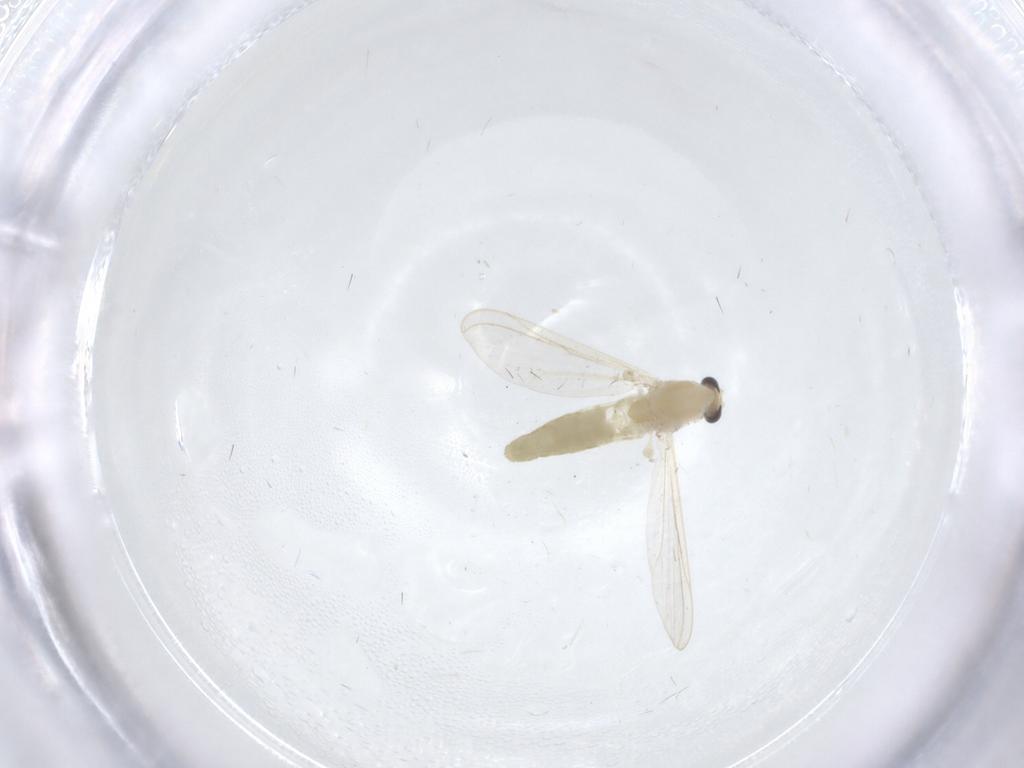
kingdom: Animalia
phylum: Arthropoda
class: Insecta
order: Diptera
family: Chironomidae
